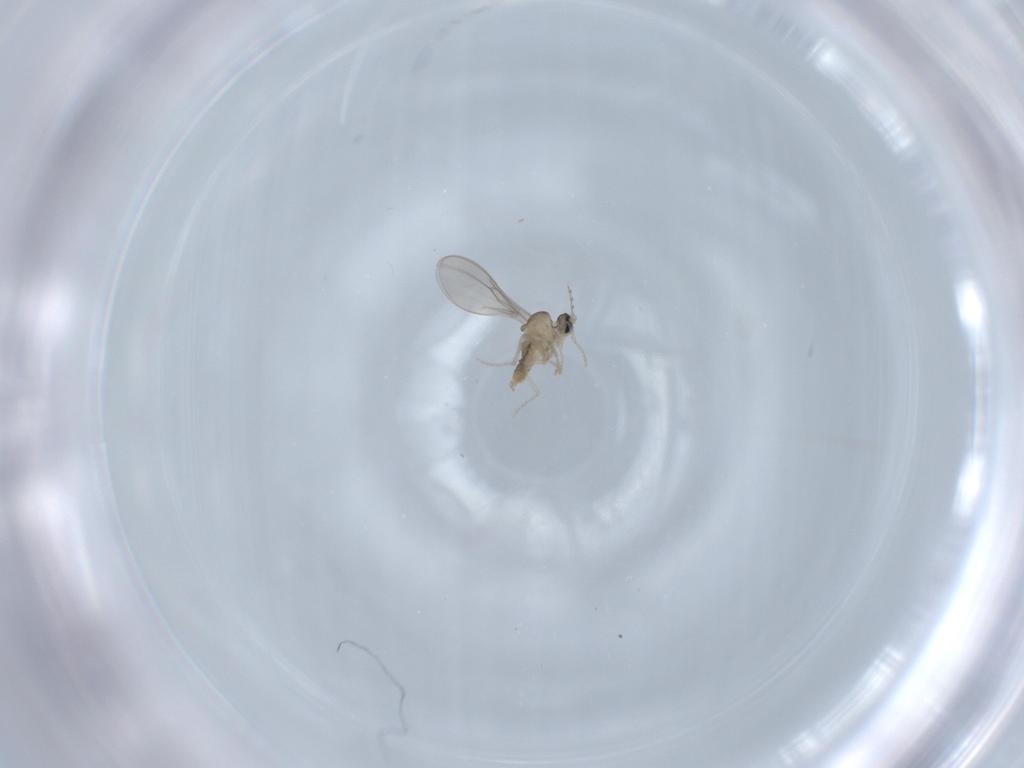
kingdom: Animalia
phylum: Arthropoda
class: Insecta
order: Diptera
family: Cecidomyiidae
